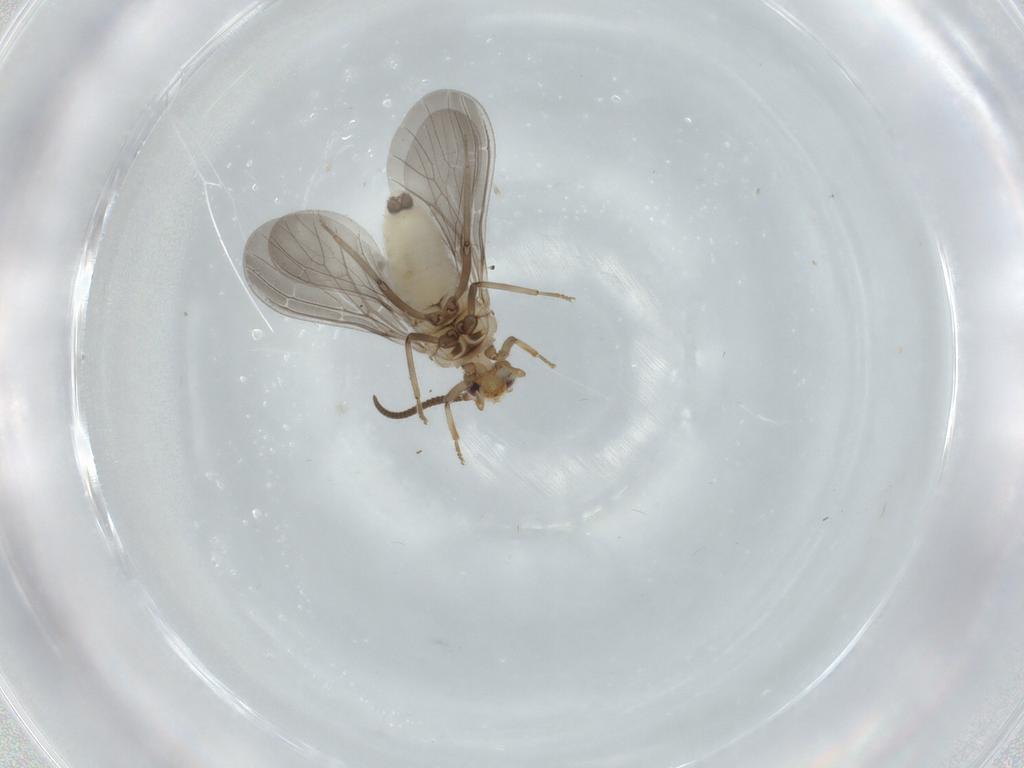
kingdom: Animalia
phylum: Arthropoda
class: Insecta
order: Neuroptera
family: Coniopterygidae
